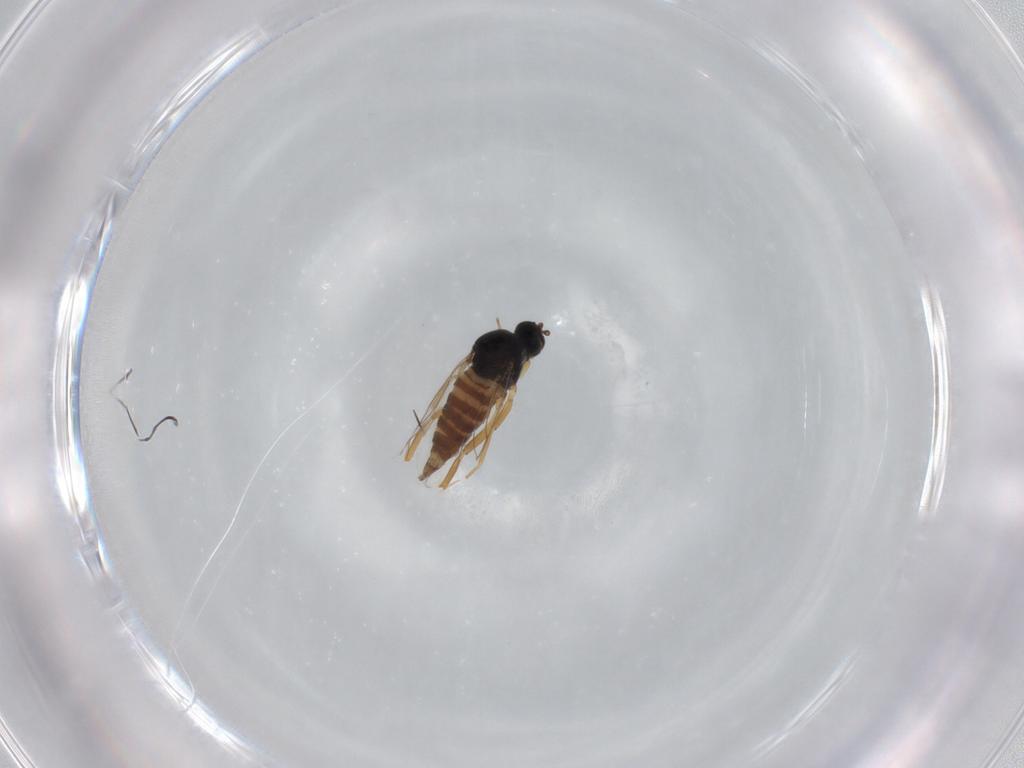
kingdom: Animalia
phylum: Arthropoda
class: Insecta
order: Diptera
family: Hybotidae
